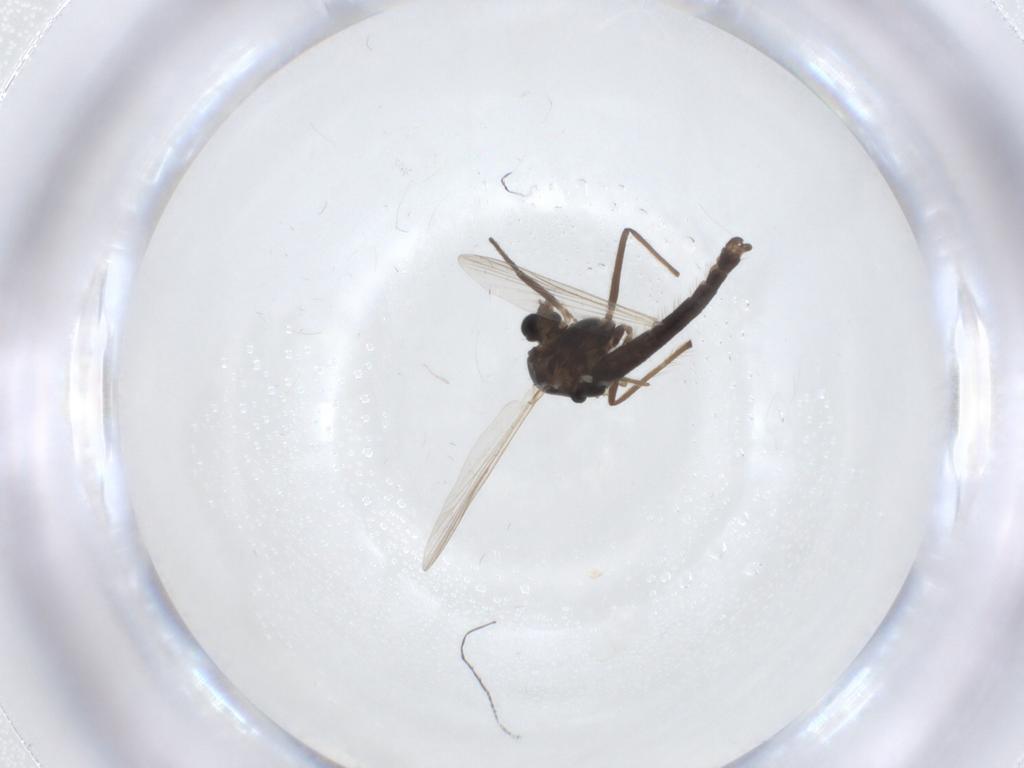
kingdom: Animalia
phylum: Arthropoda
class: Insecta
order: Diptera
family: Chironomidae
